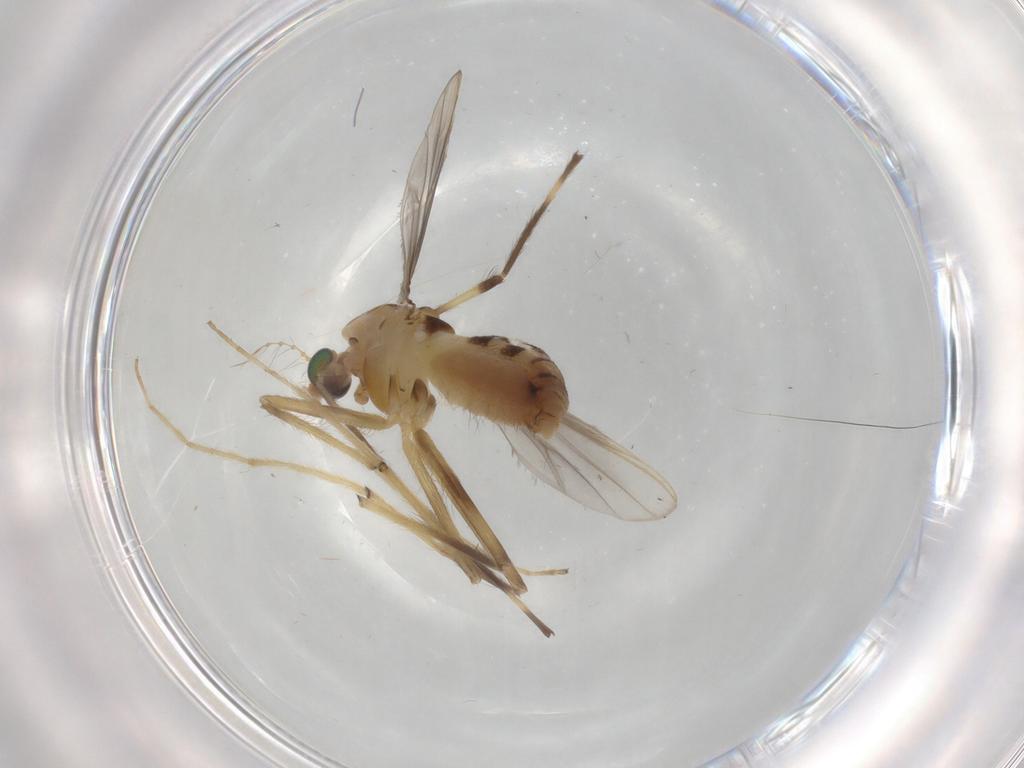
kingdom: Animalia
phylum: Arthropoda
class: Insecta
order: Diptera
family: Chironomidae
